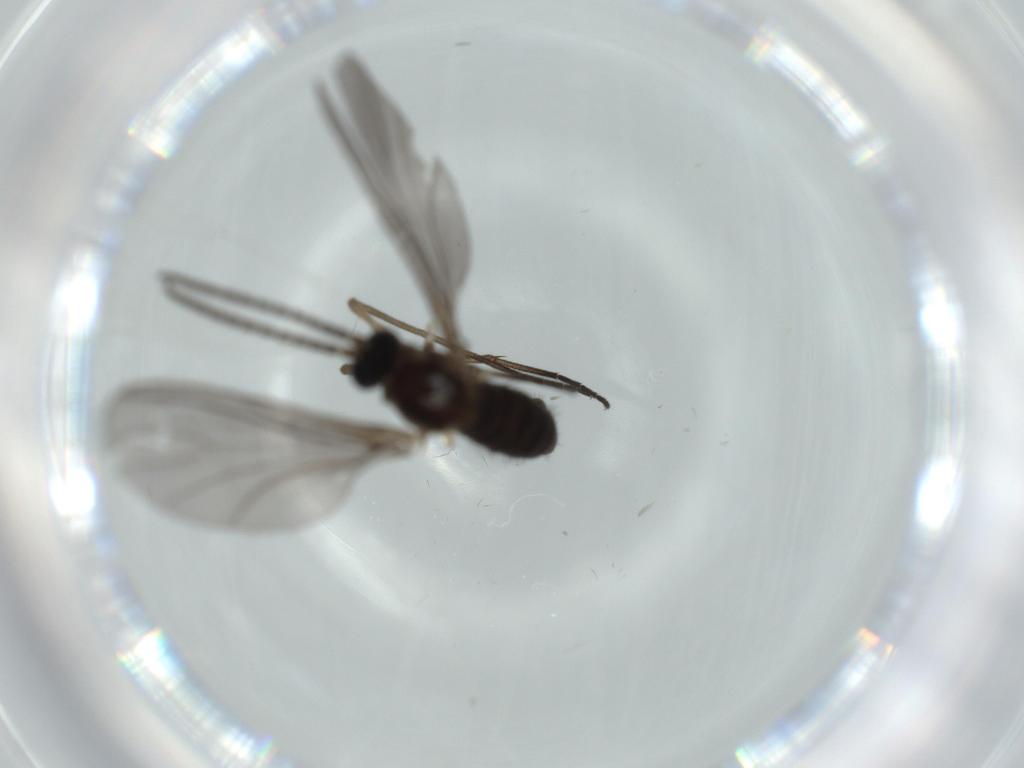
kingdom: Animalia
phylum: Arthropoda
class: Insecta
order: Diptera
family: Sciaridae
